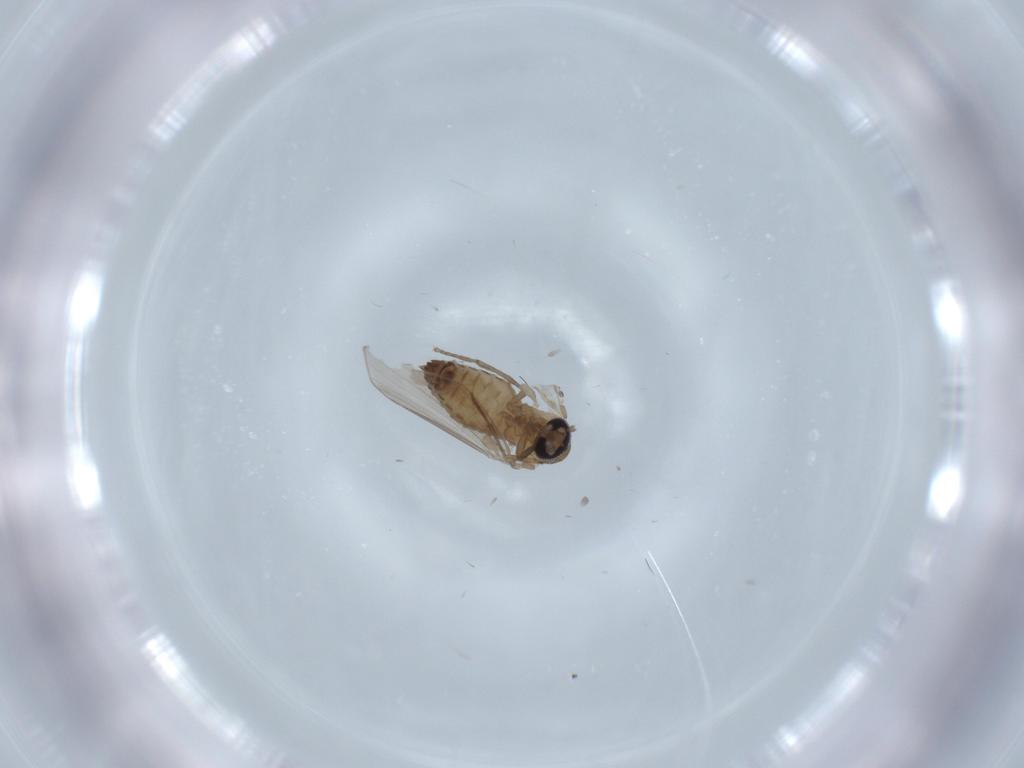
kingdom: Animalia
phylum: Arthropoda
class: Insecta
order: Diptera
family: Psychodidae
